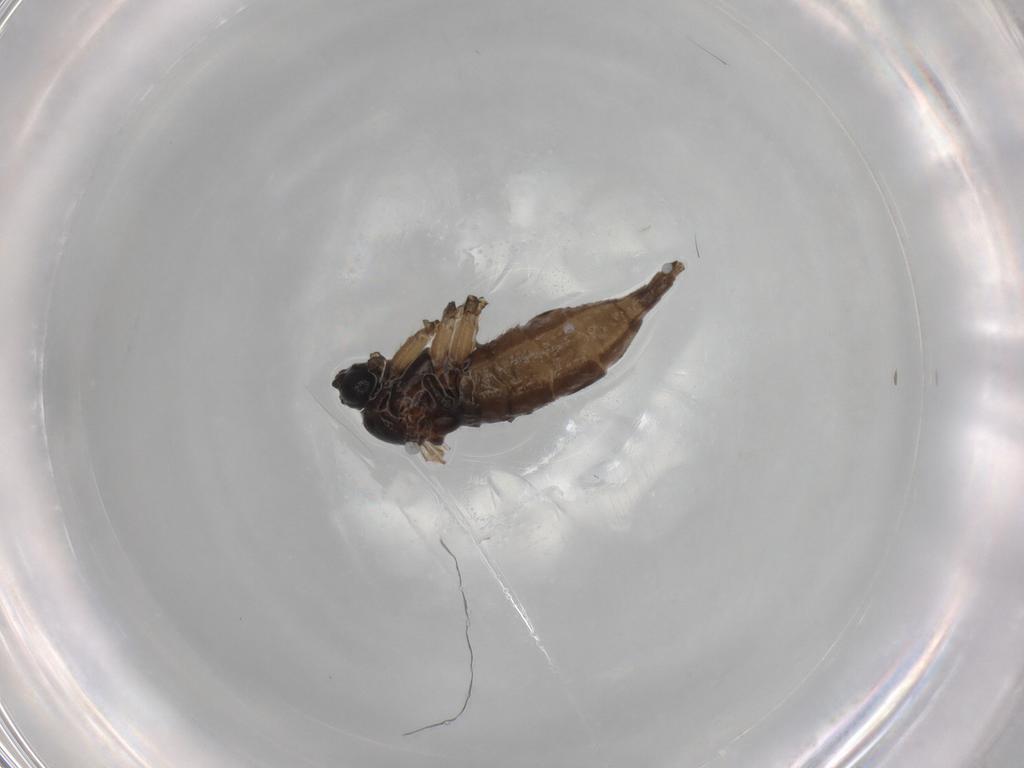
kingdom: Animalia
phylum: Arthropoda
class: Insecta
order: Diptera
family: Sciaridae
